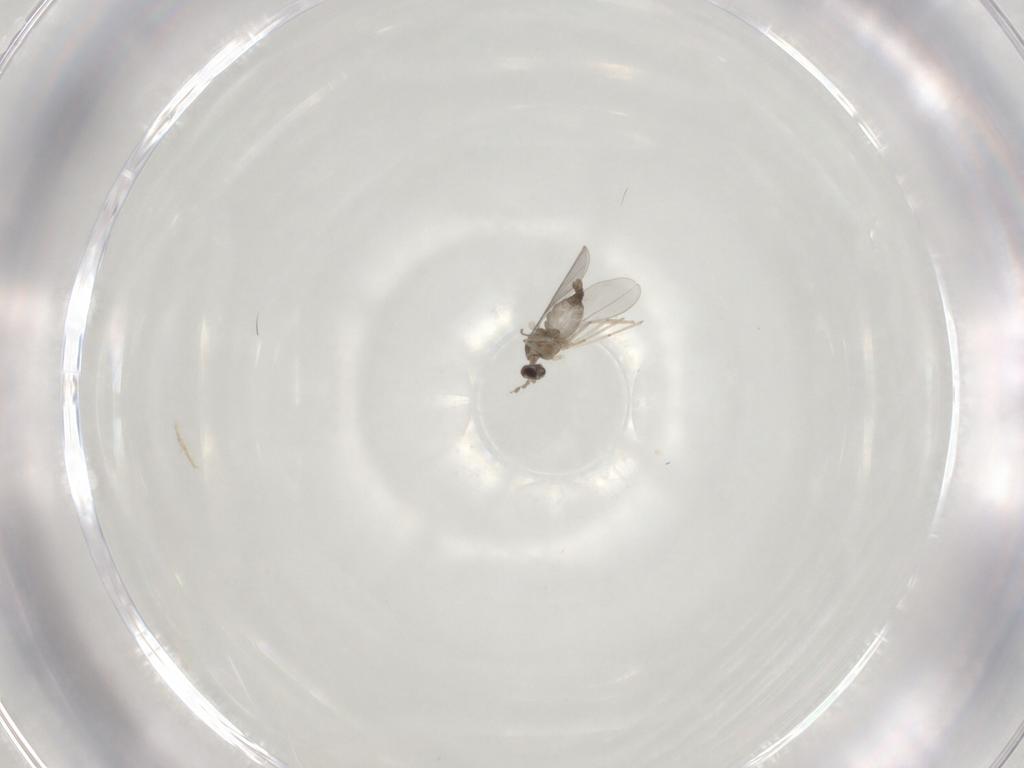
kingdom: Animalia
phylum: Arthropoda
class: Insecta
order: Diptera
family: Cecidomyiidae
